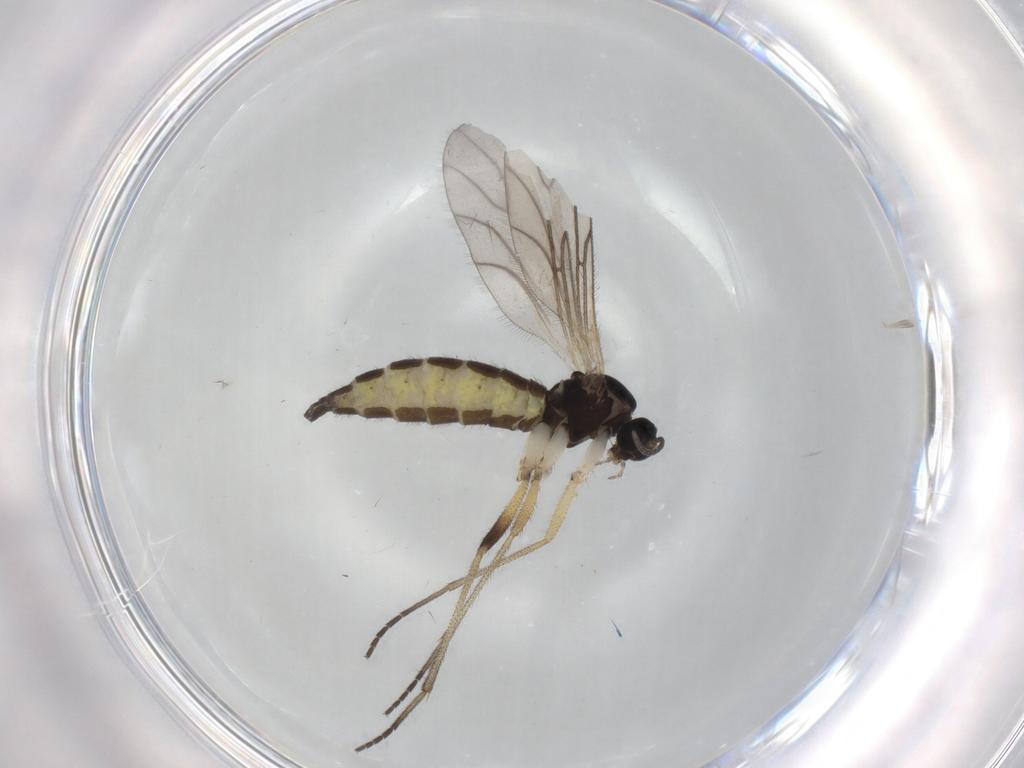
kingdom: Animalia
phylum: Arthropoda
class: Insecta
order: Diptera
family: Sciaridae
